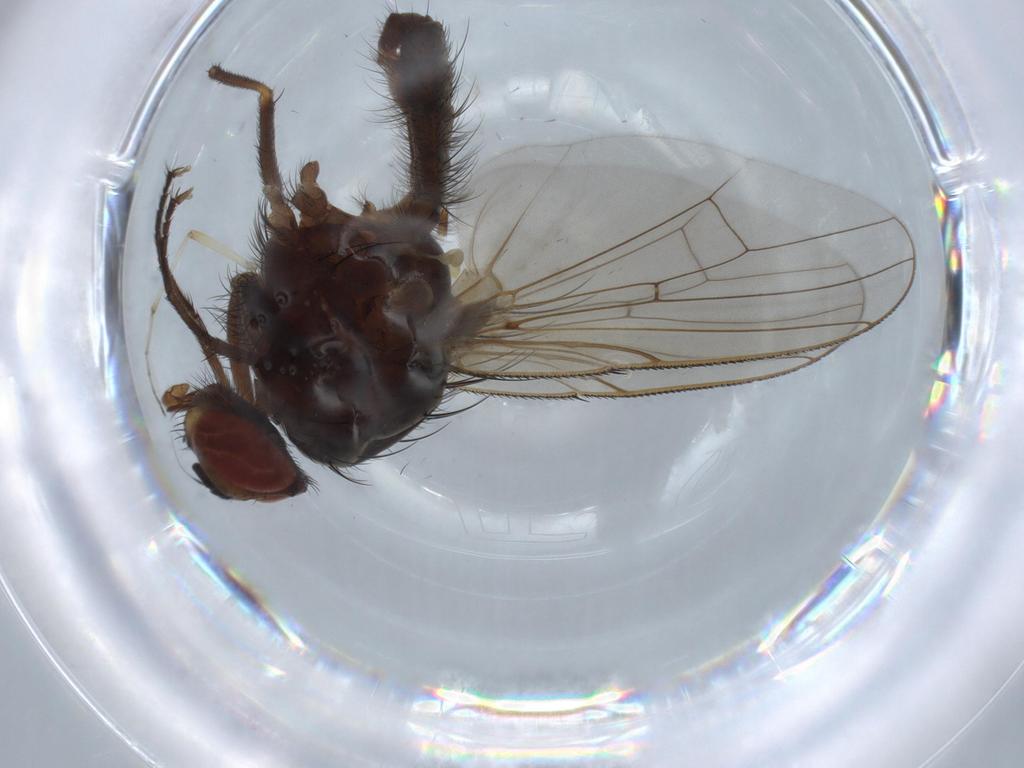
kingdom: Animalia
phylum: Arthropoda
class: Insecta
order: Diptera
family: Anthomyiidae
